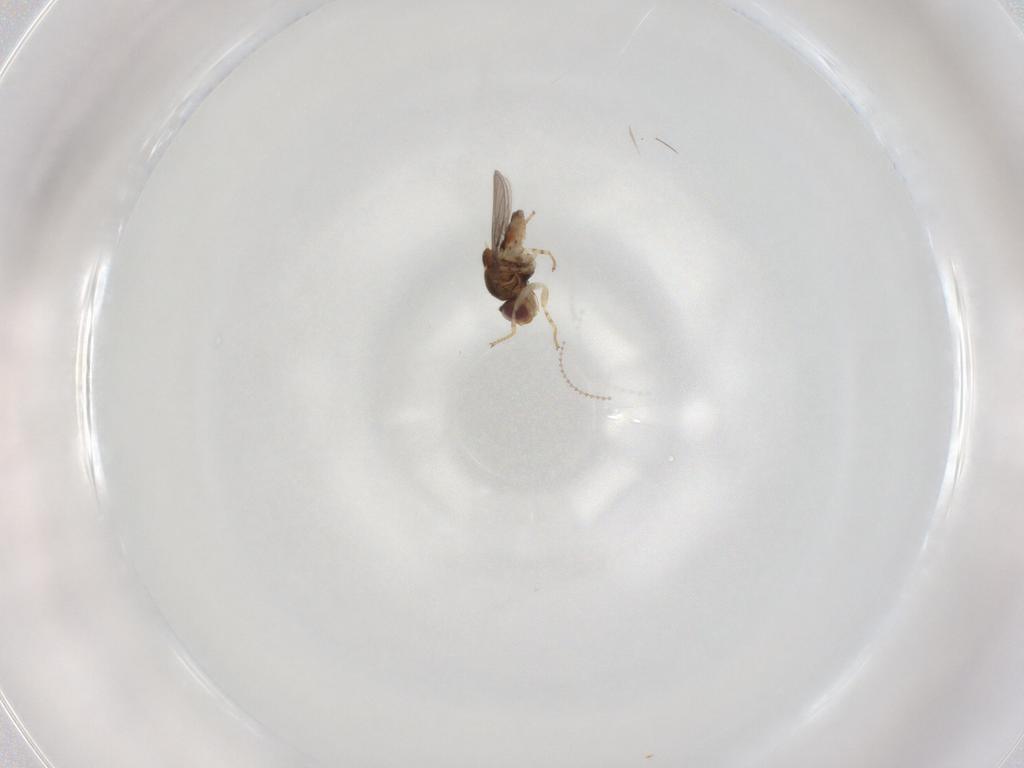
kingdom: Animalia
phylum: Arthropoda
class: Insecta
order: Diptera
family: Cecidomyiidae
